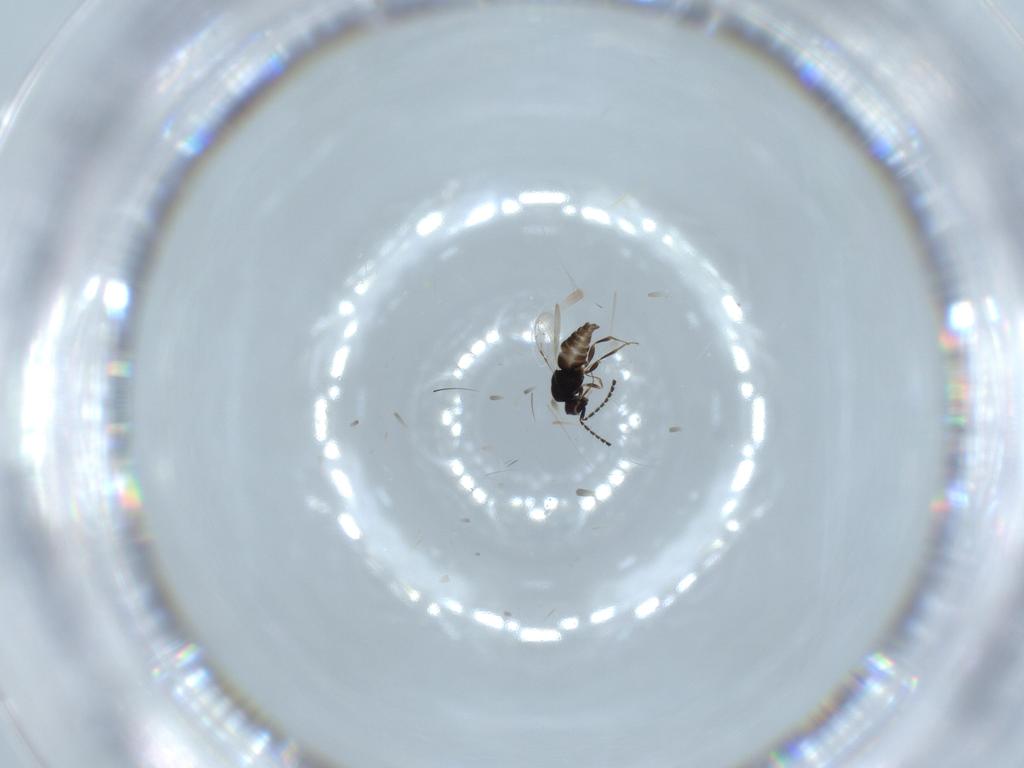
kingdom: Animalia
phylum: Arthropoda
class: Insecta
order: Hymenoptera
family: Ceraphronidae
